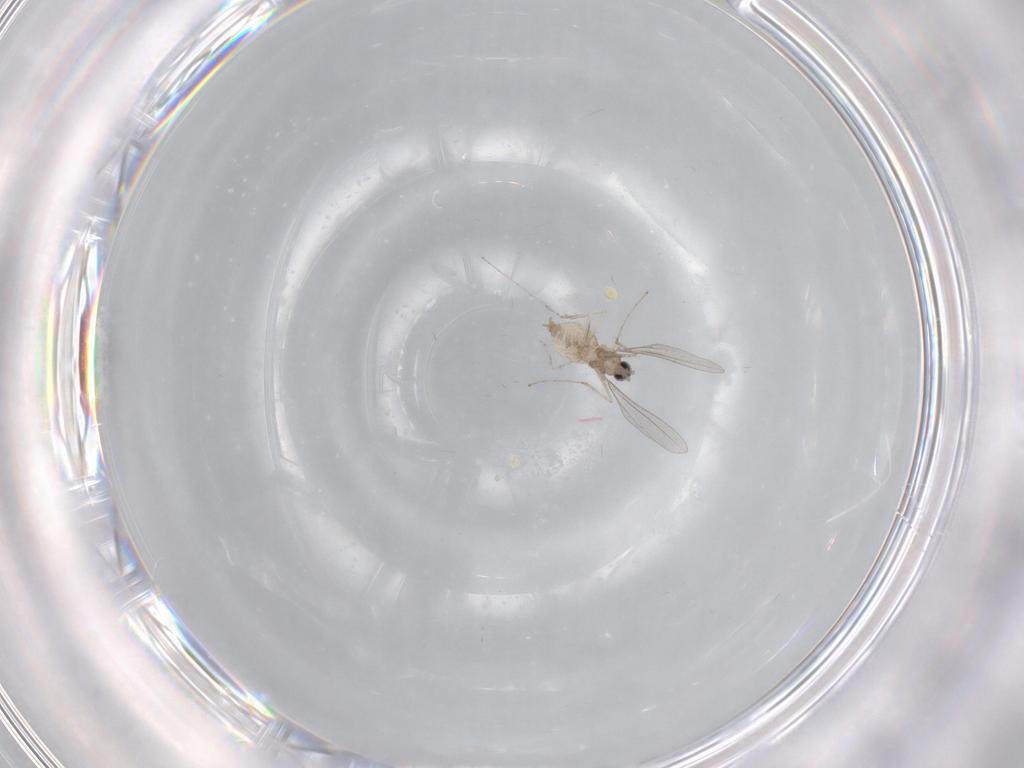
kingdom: Animalia
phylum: Arthropoda
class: Insecta
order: Diptera
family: Cecidomyiidae
